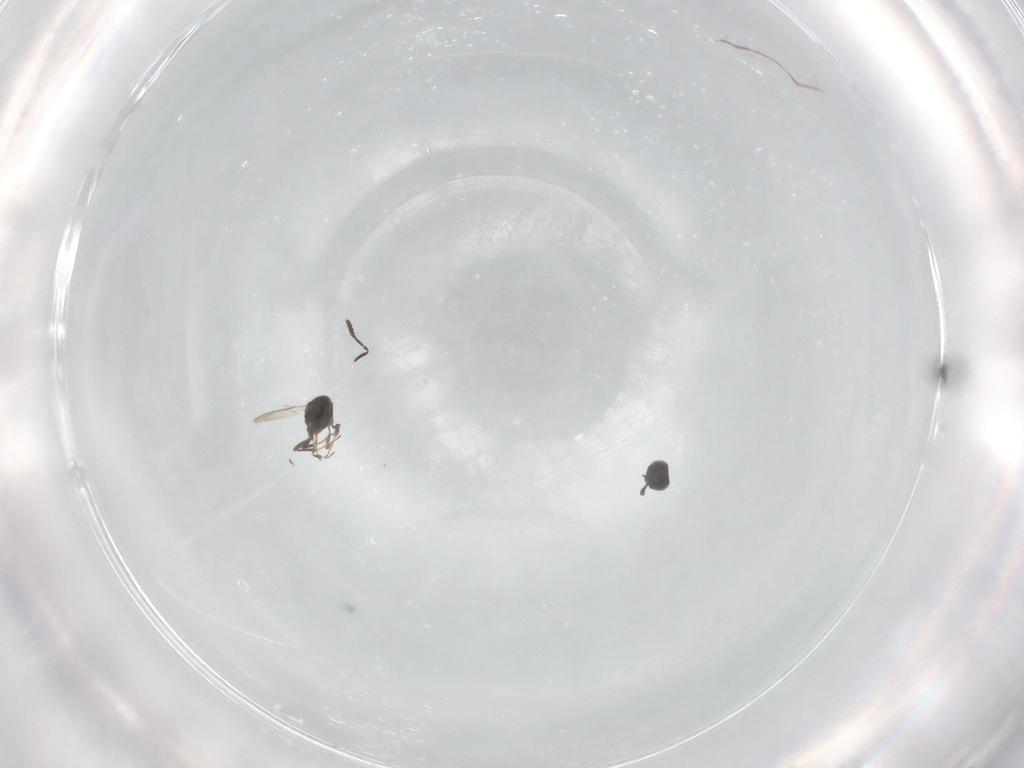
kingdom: Animalia
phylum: Arthropoda
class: Insecta
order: Hymenoptera
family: Scelionidae
